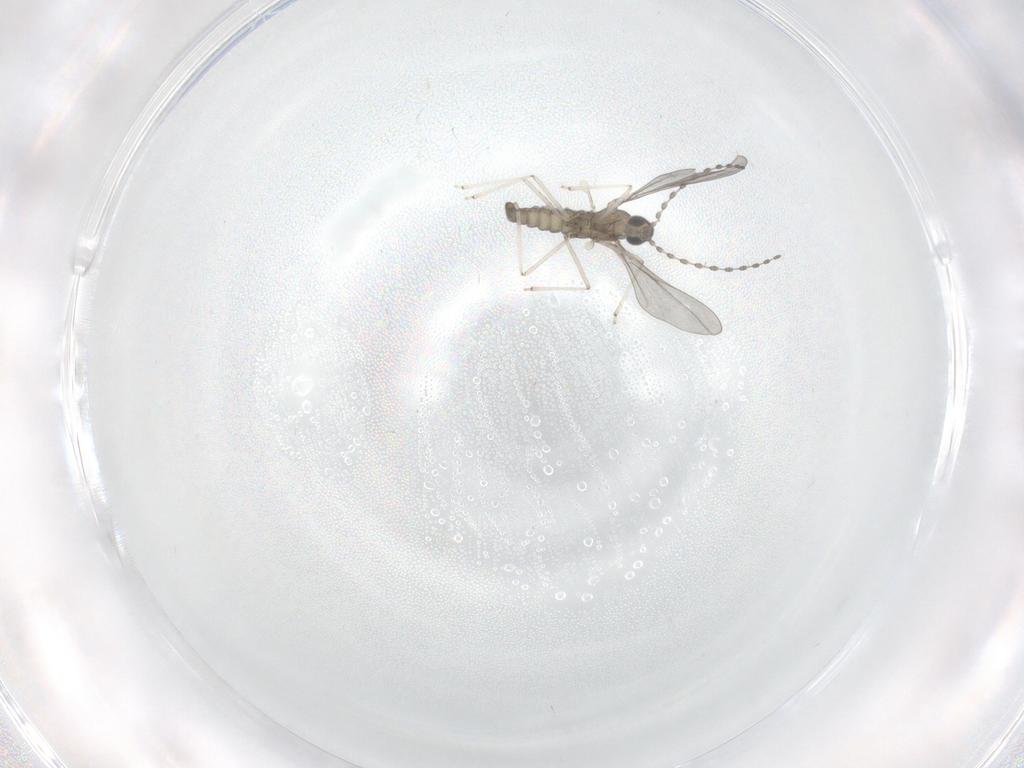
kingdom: Animalia
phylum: Arthropoda
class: Insecta
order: Diptera
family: Cecidomyiidae
